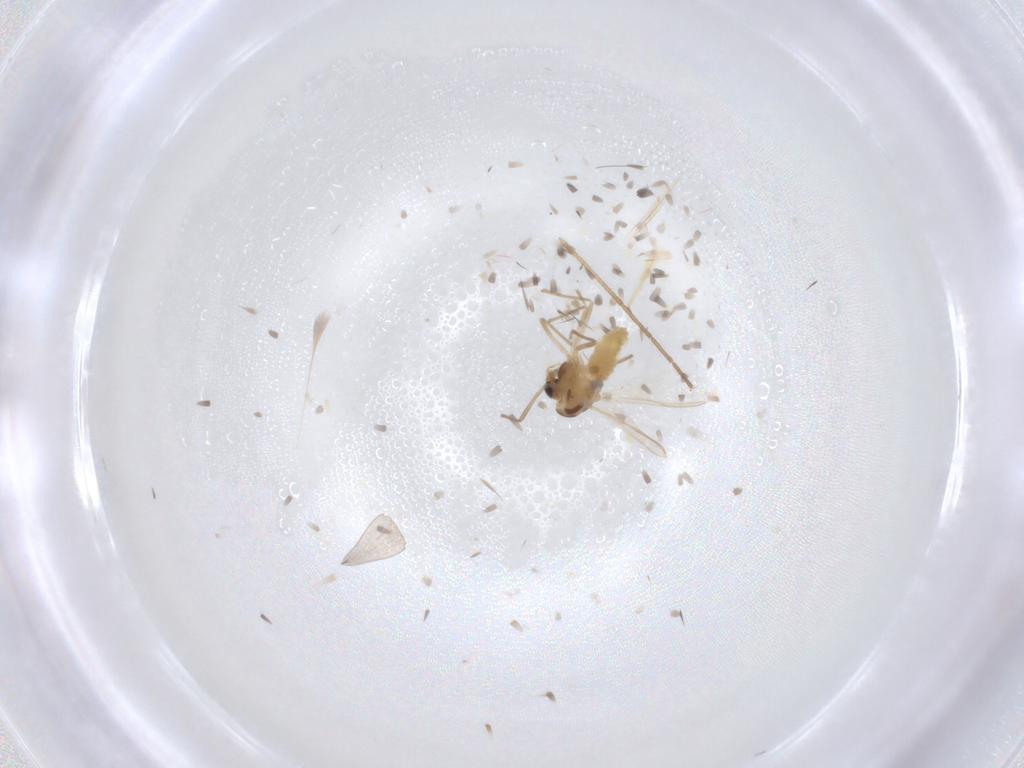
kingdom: Animalia
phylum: Arthropoda
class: Insecta
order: Diptera
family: Chironomidae
